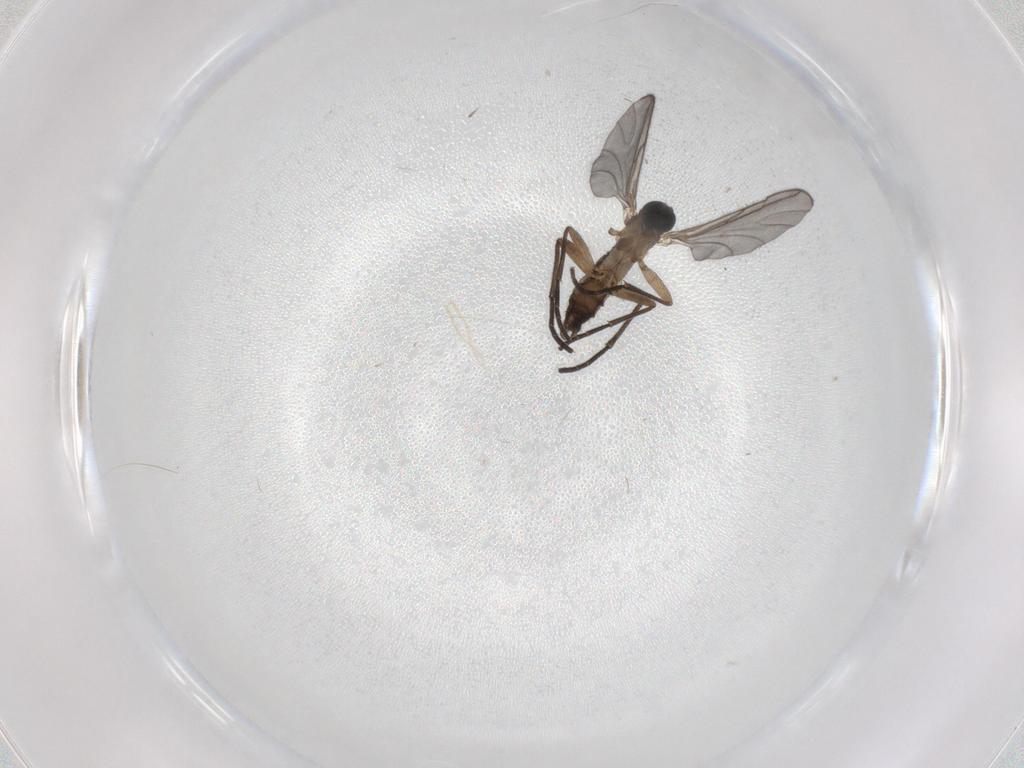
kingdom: Animalia
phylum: Arthropoda
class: Insecta
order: Diptera
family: Sciaridae
